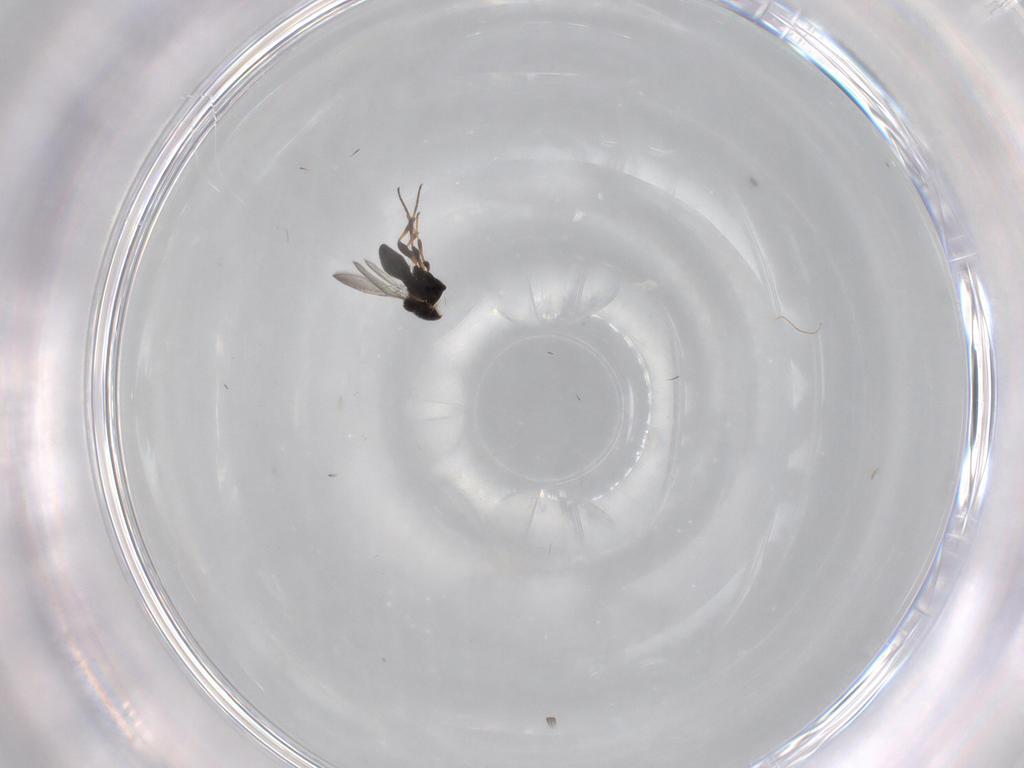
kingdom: Animalia
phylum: Arthropoda
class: Insecta
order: Hymenoptera
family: Platygastridae
